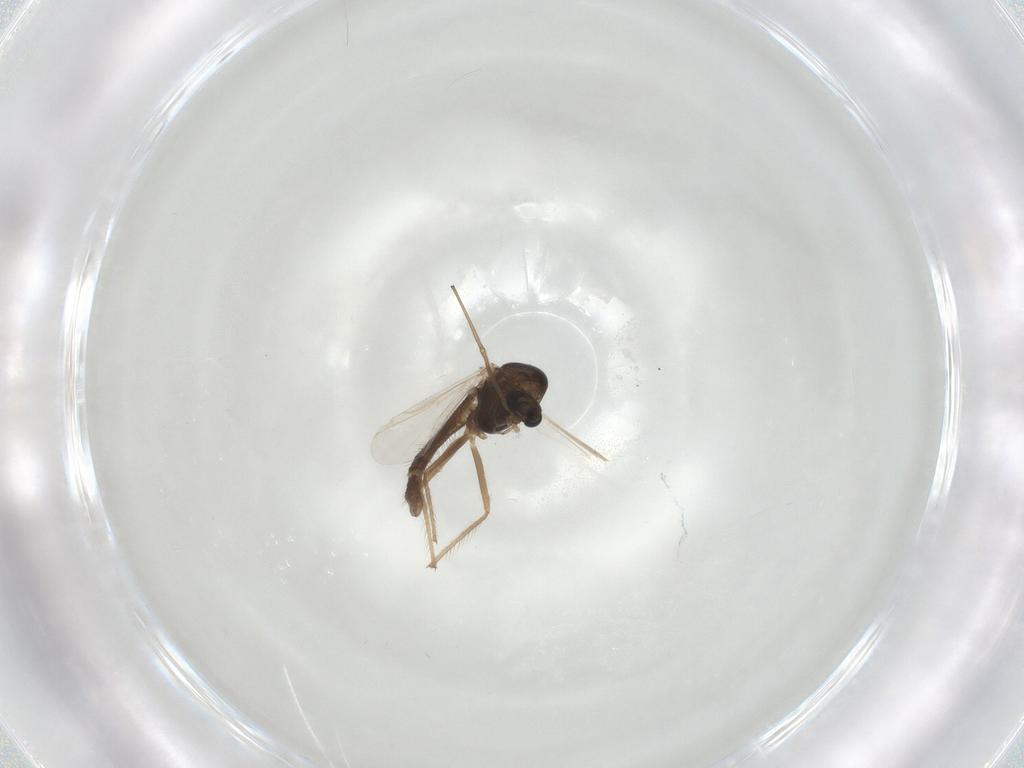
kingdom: Animalia
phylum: Arthropoda
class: Insecta
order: Diptera
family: Chironomidae
